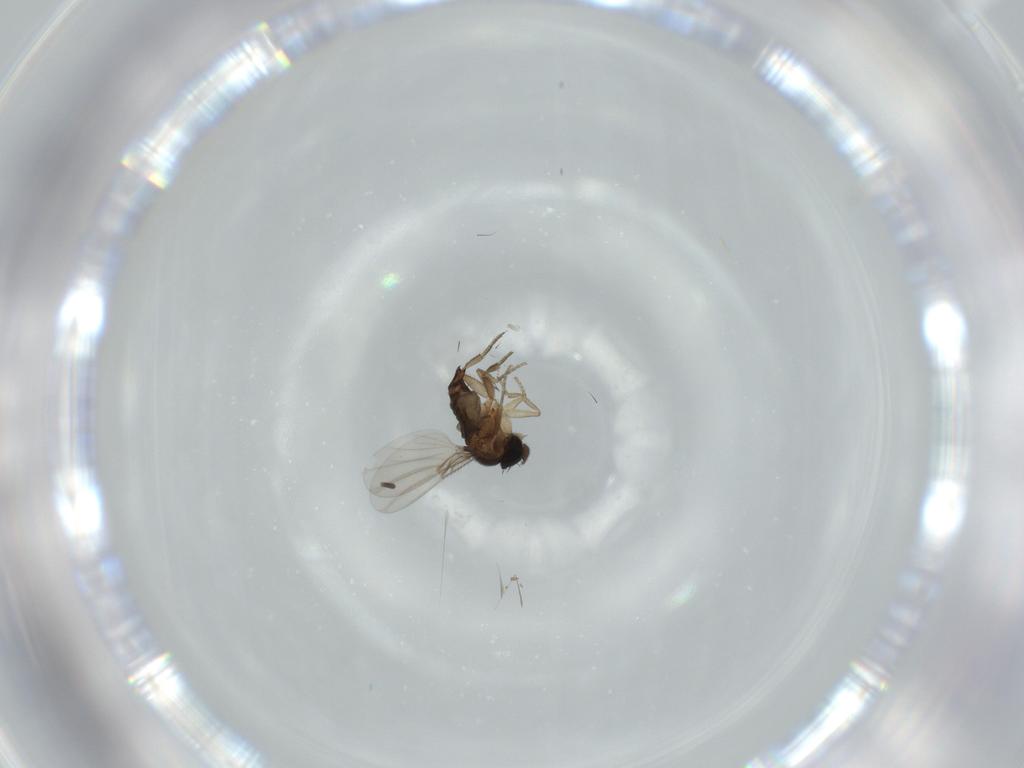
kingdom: Animalia
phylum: Arthropoda
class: Insecta
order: Diptera
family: Phoridae
